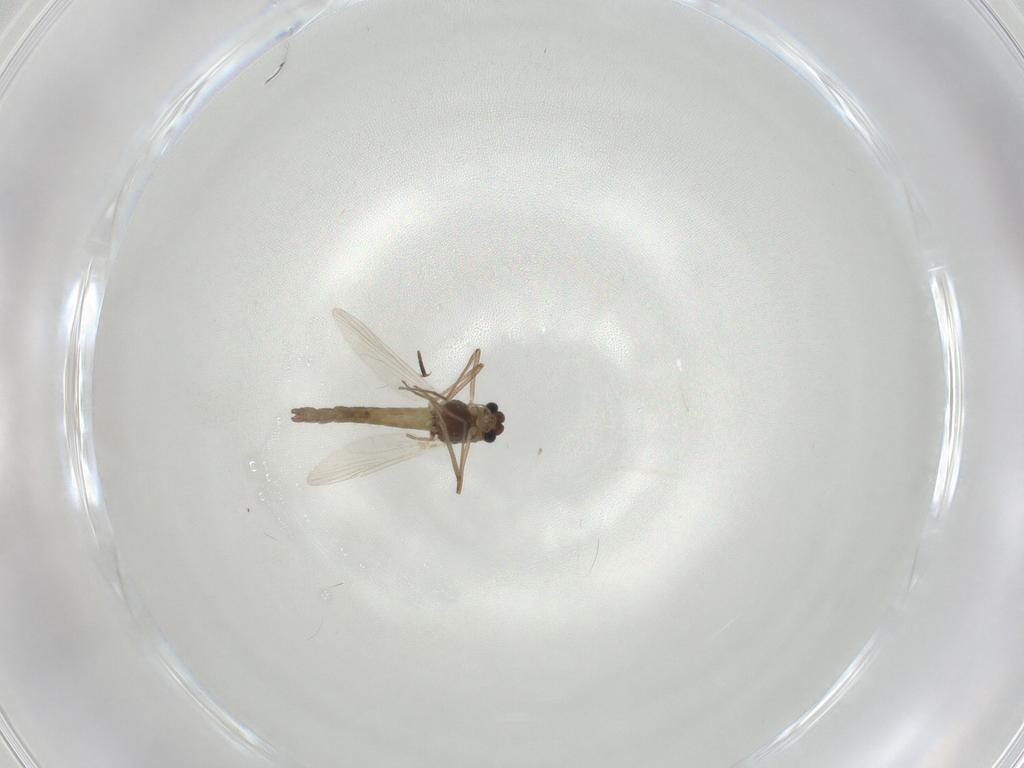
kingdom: Animalia
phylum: Arthropoda
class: Insecta
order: Diptera
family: Chironomidae
